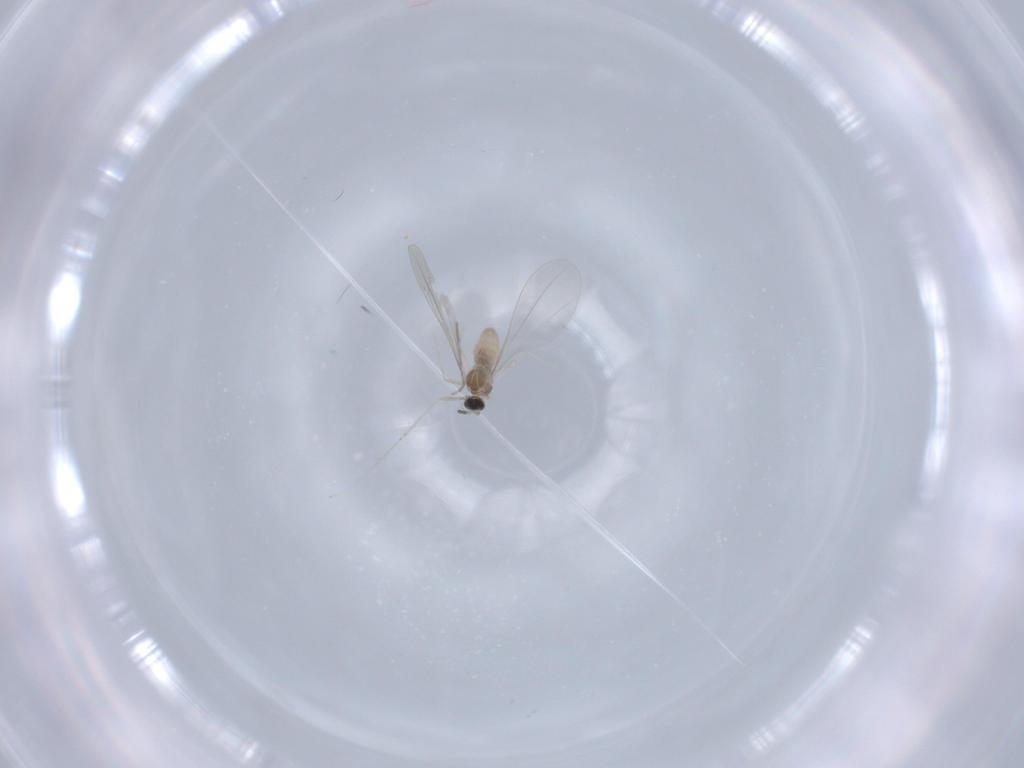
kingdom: Animalia
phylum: Arthropoda
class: Insecta
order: Diptera
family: Chironomidae
